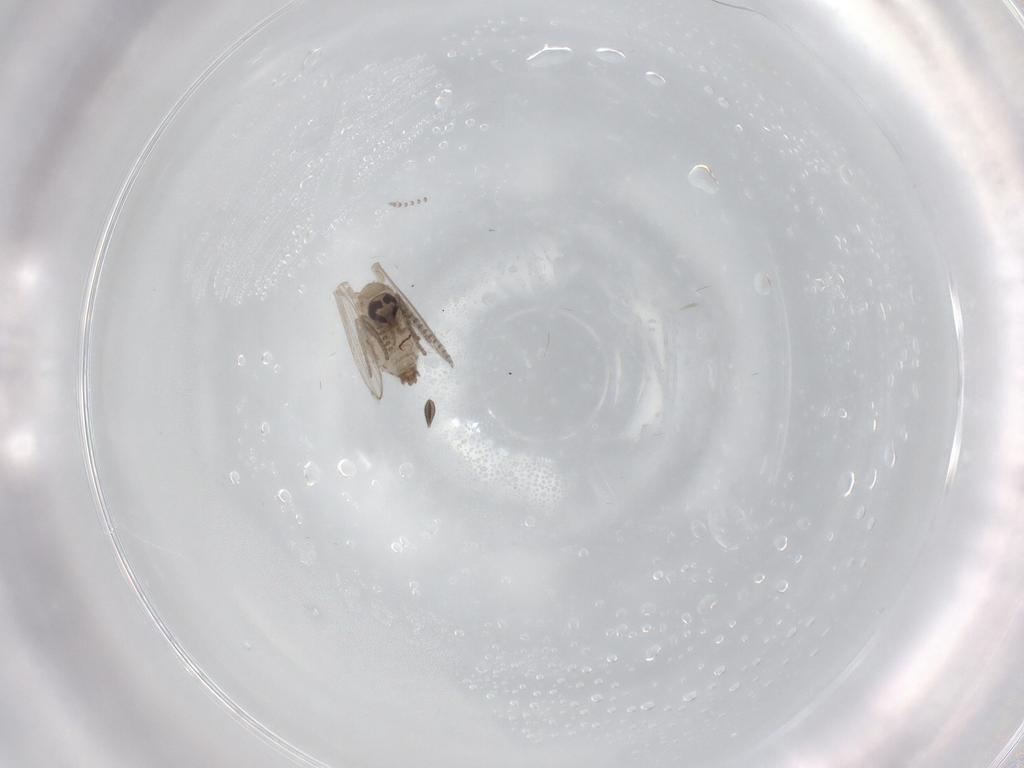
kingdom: Animalia
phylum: Arthropoda
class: Insecta
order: Diptera
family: Psychodidae
